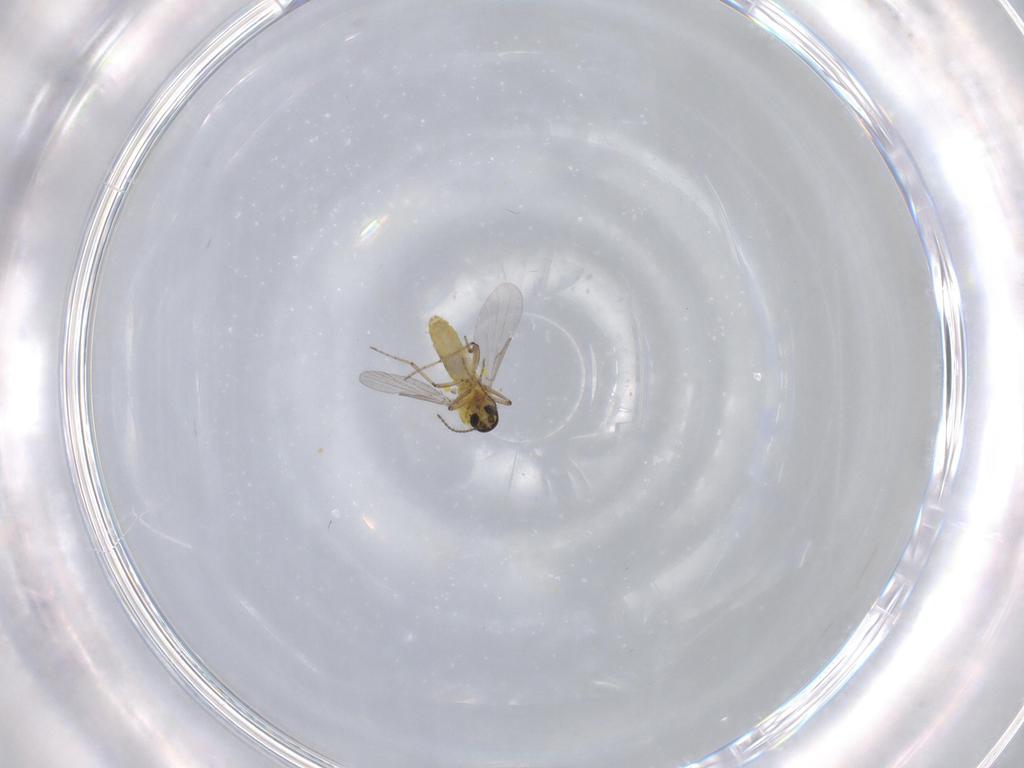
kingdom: Animalia
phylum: Arthropoda
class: Insecta
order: Diptera
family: Ceratopogonidae
